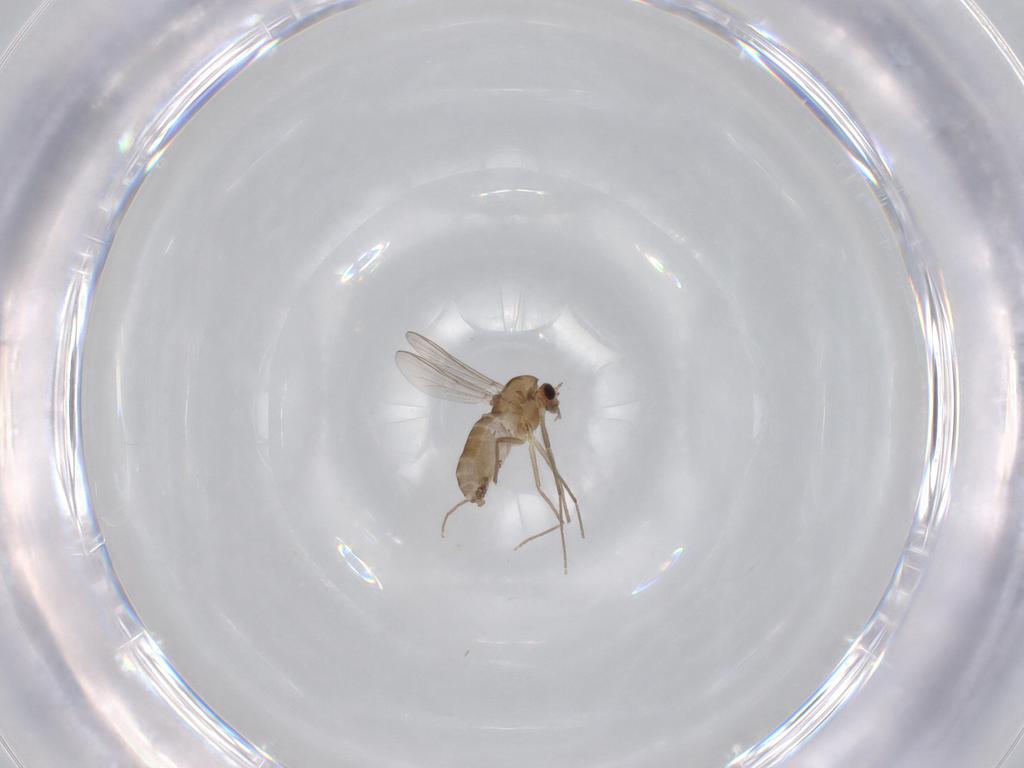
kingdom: Animalia
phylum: Arthropoda
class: Insecta
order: Diptera
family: Chironomidae
